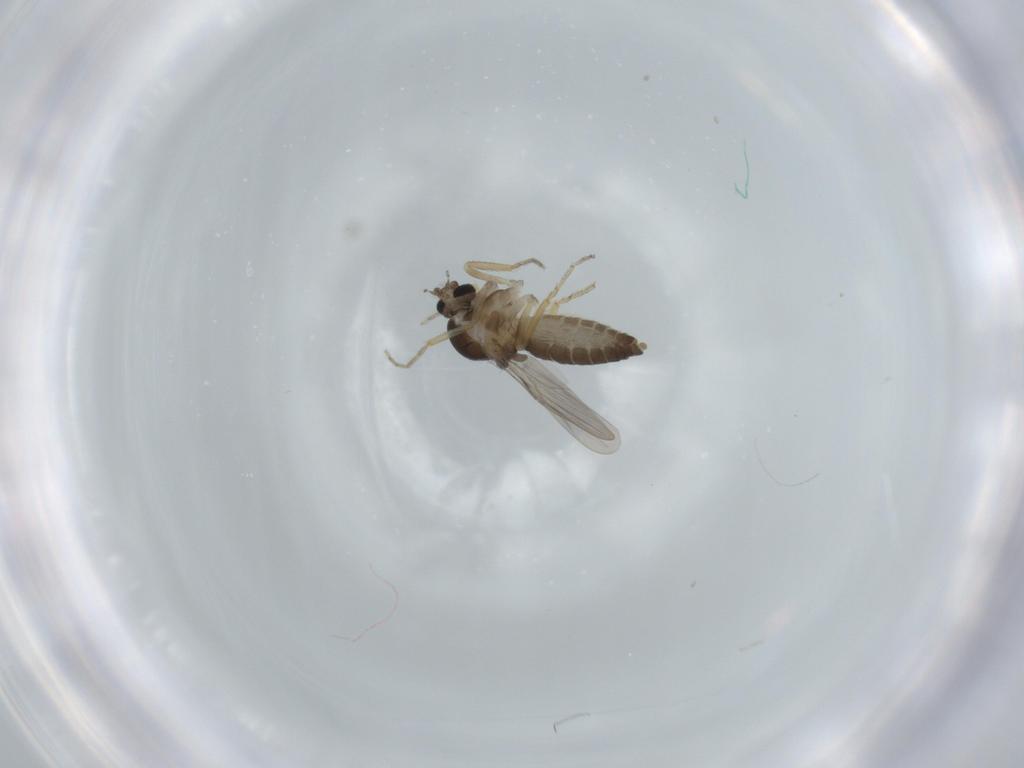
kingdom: Animalia
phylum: Arthropoda
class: Insecta
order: Diptera
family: Ceratopogonidae
